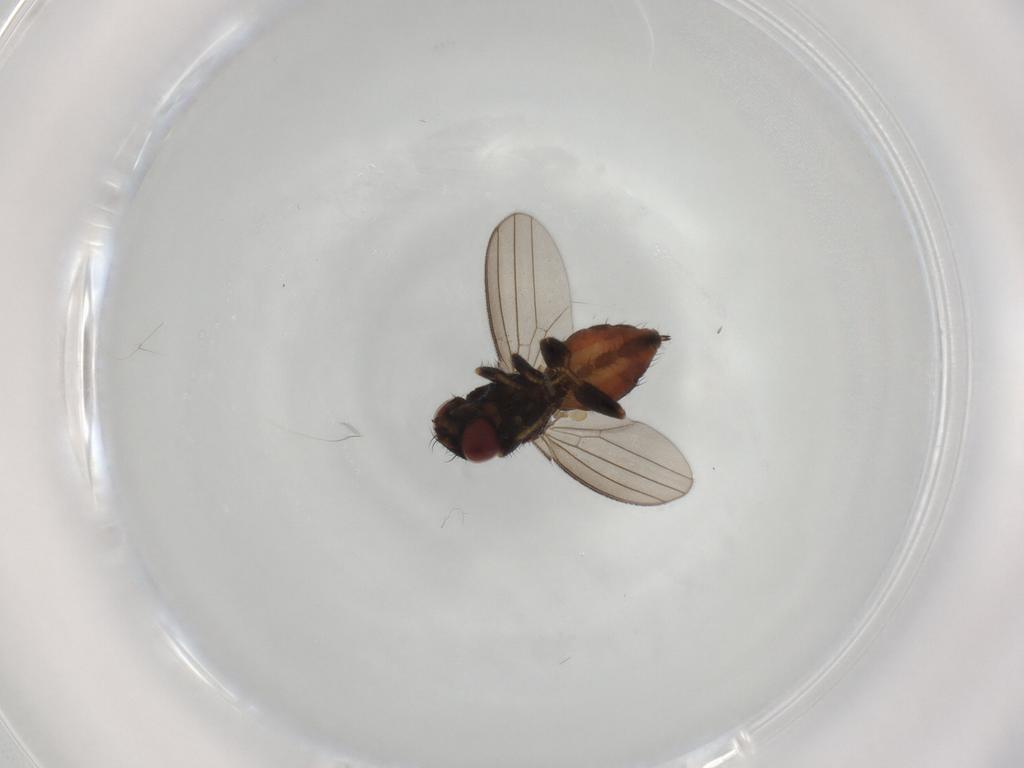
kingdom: Animalia
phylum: Arthropoda
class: Insecta
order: Diptera
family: Milichiidae
